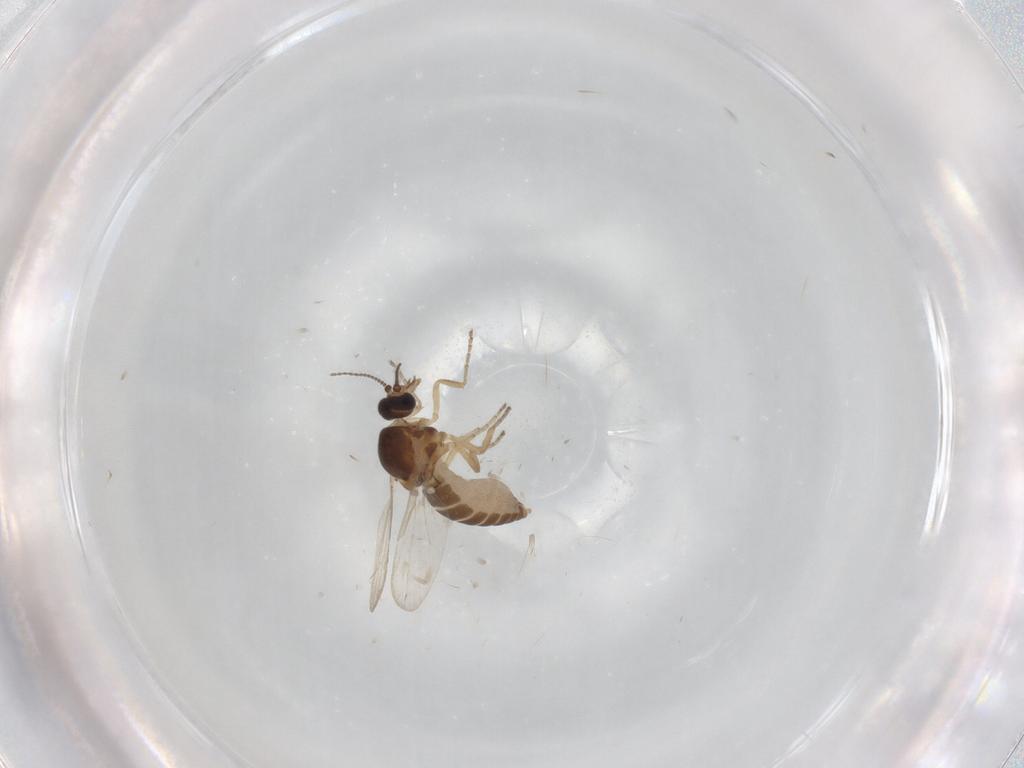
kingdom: Animalia
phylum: Arthropoda
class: Insecta
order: Diptera
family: Ceratopogonidae
